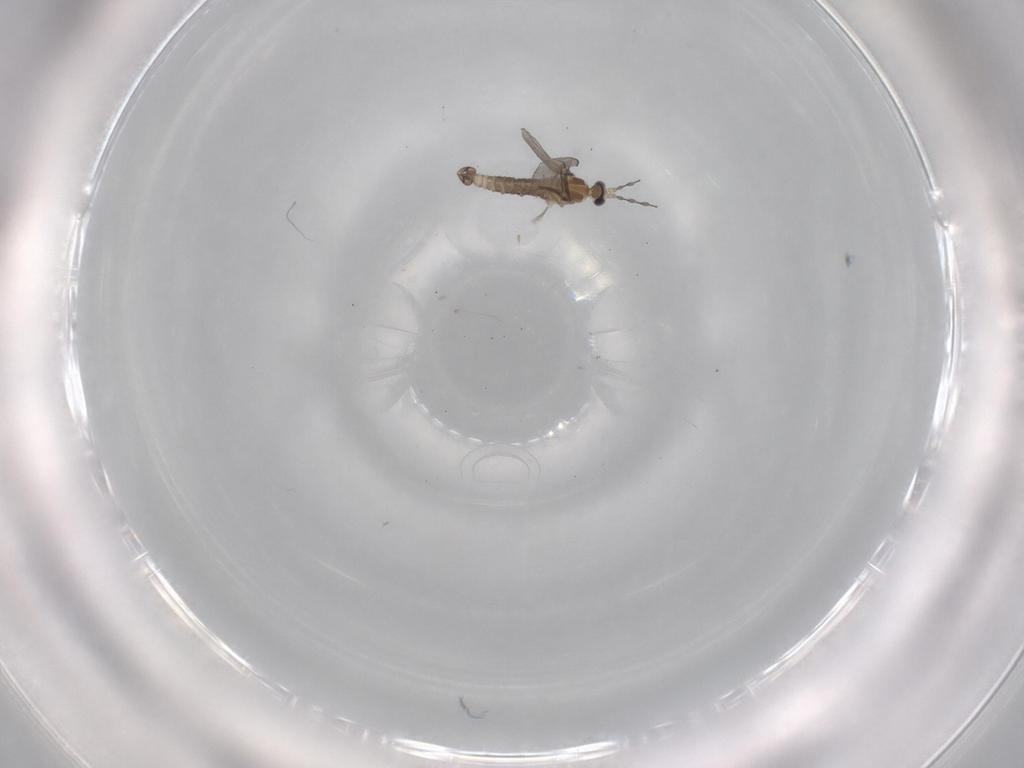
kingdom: Animalia
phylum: Arthropoda
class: Insecta
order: Diptera
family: Cecidomyiidae
